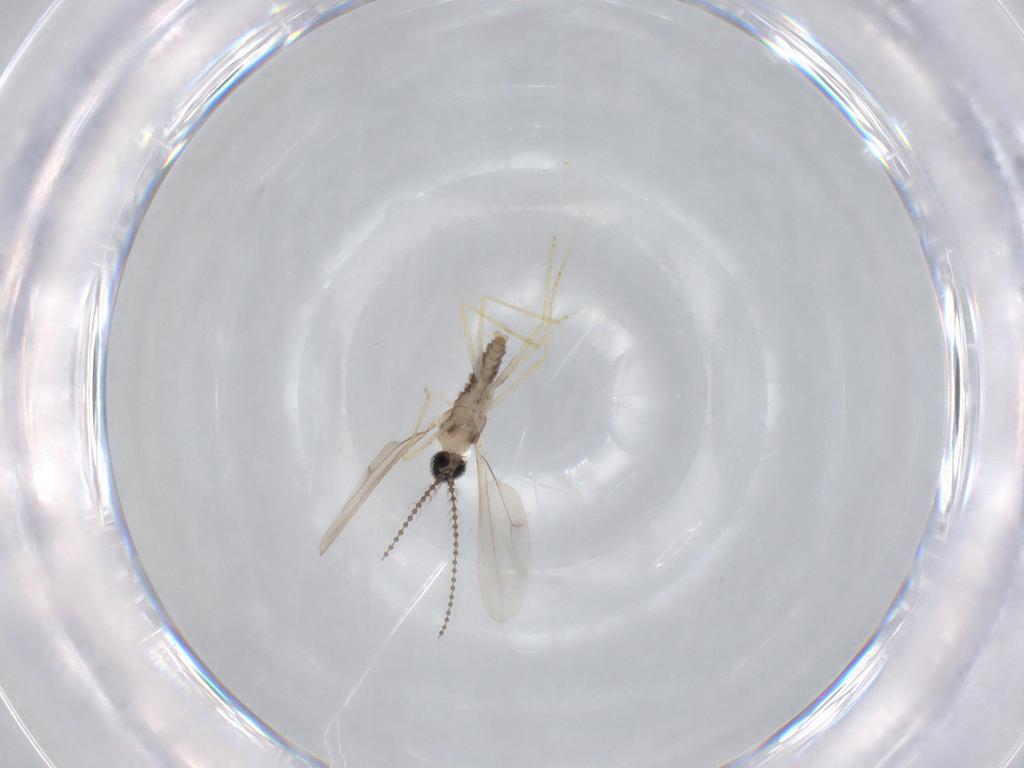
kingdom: Animalia
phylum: Arthropoda
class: Insecta
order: Diptera
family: Cecidomyiidae
